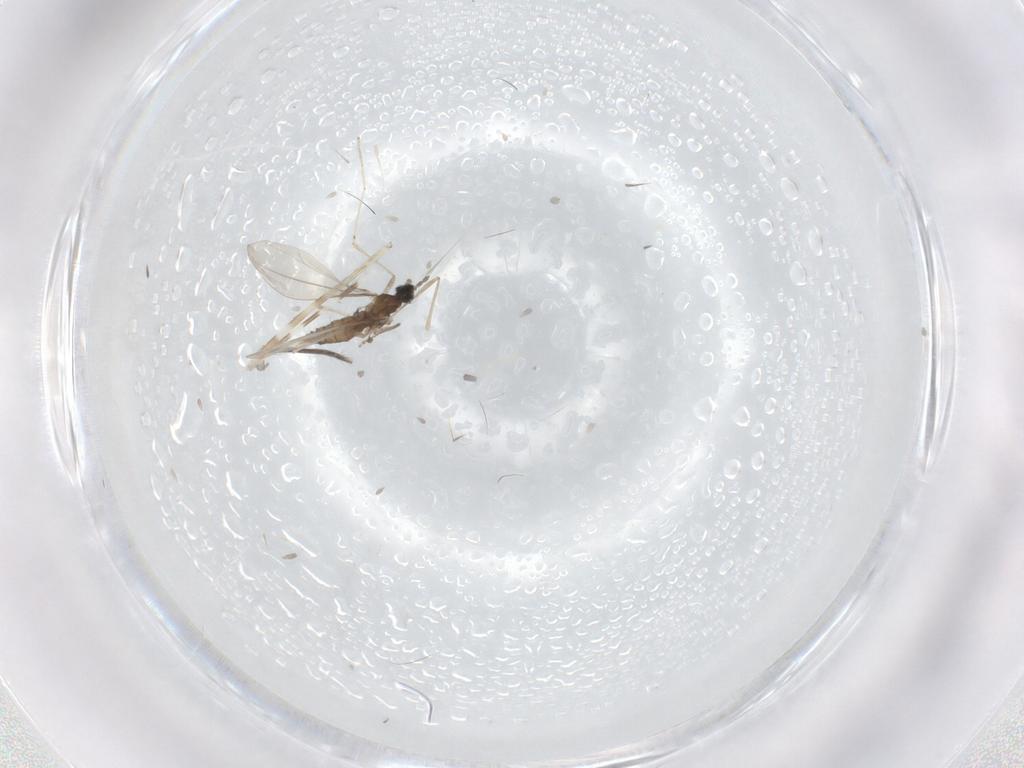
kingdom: Animalia
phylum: Arthropoda
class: Insecta
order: Diptera
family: Limoniidae
